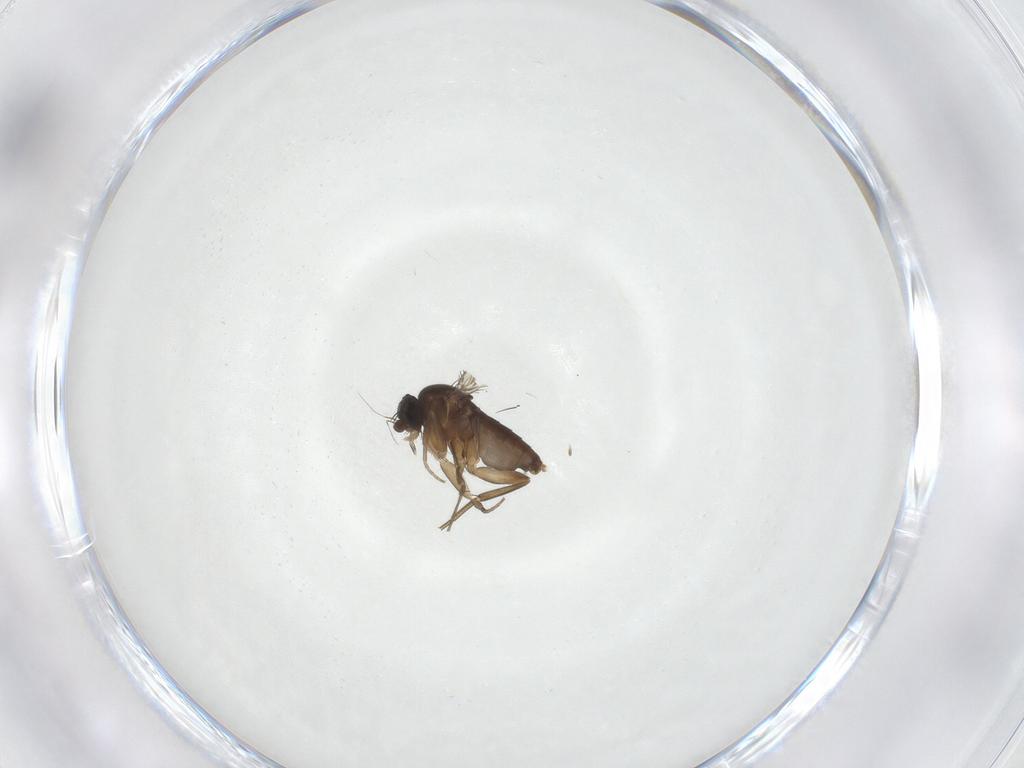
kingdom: Animalia
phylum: Arthropoda
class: Insecta
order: Diptera
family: Phoridae
